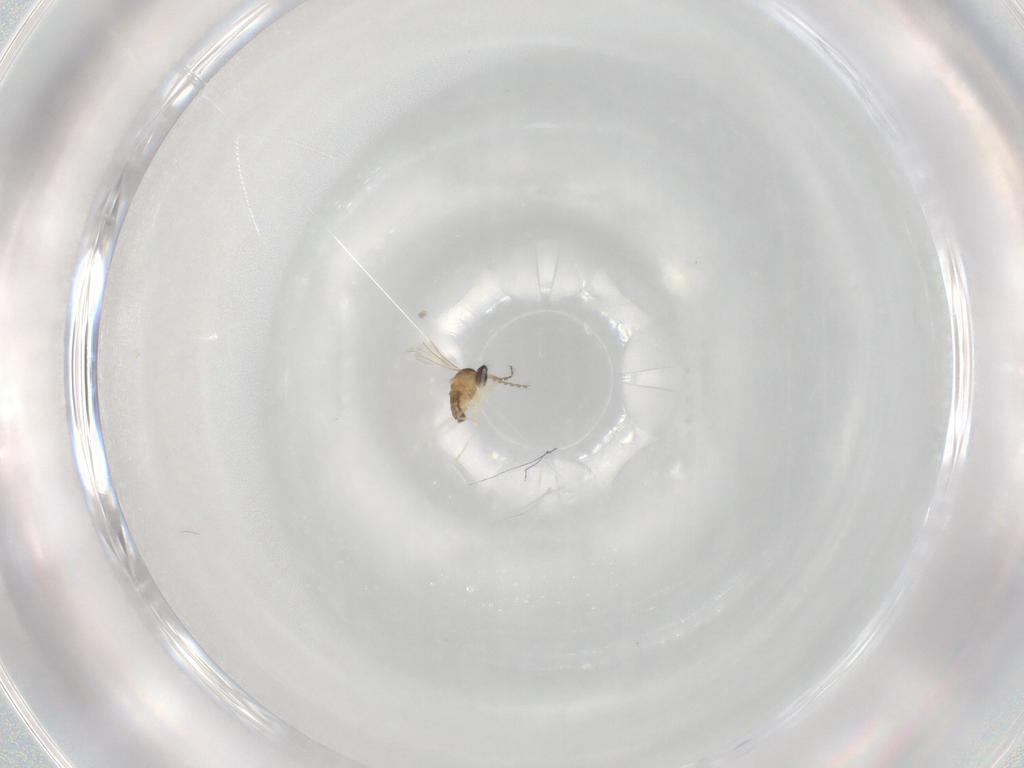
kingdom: Animalia
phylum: Arthropoda
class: Insecta
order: Diptera
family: Cecidomyiidae
